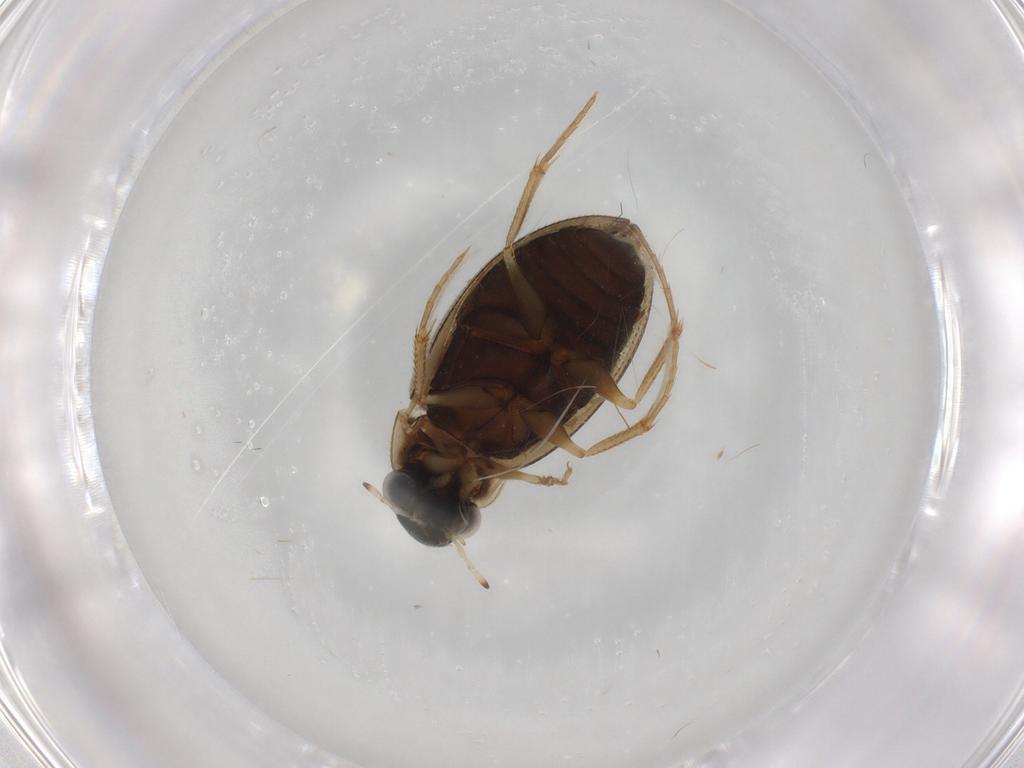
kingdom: Animalia
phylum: Arthropoda
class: Insecta
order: Coleoptera
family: Hydrophilidae
